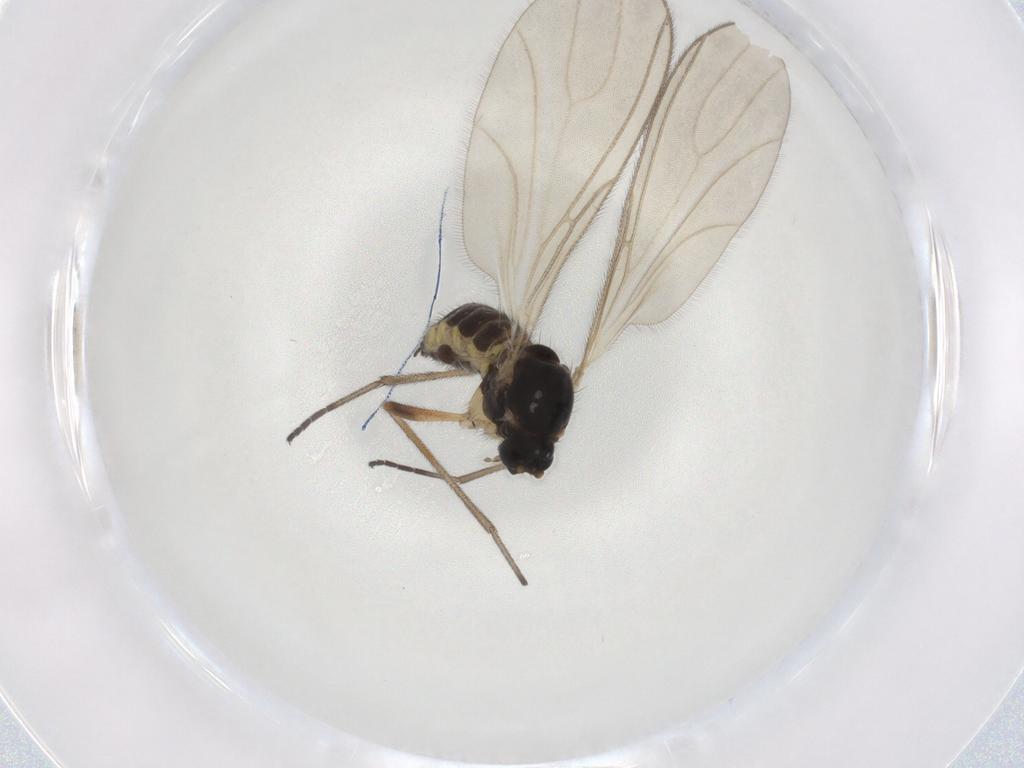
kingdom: Animalia
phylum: Arthropoda
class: Insecta
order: Diptera
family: Sciaridae
